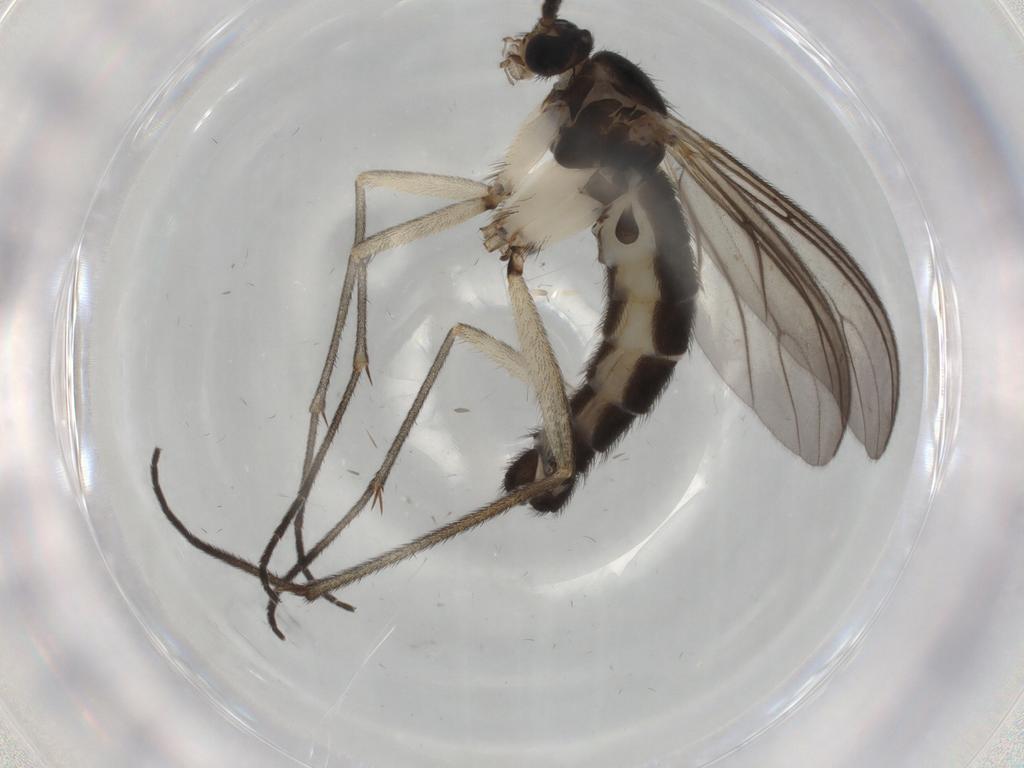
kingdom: Animalia
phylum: Arthropoda
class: Insecta
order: Diptera
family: Sciaridae
